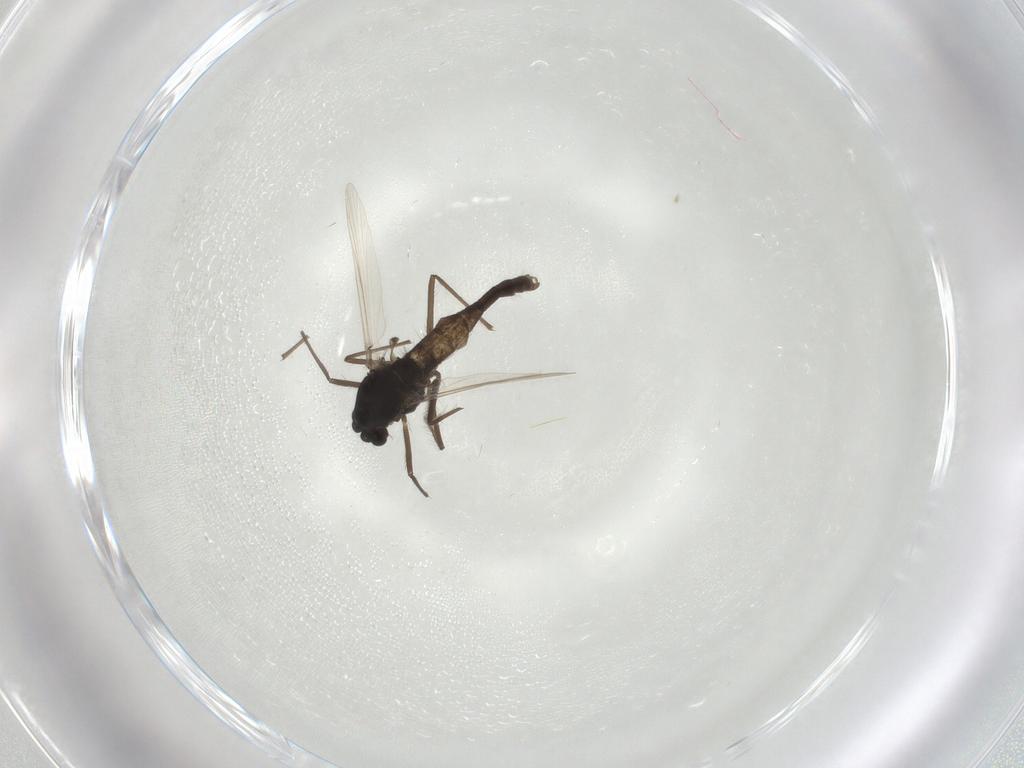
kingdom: Animalia
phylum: Arthropoda
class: Insecta
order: Diptera
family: Chironomidae
